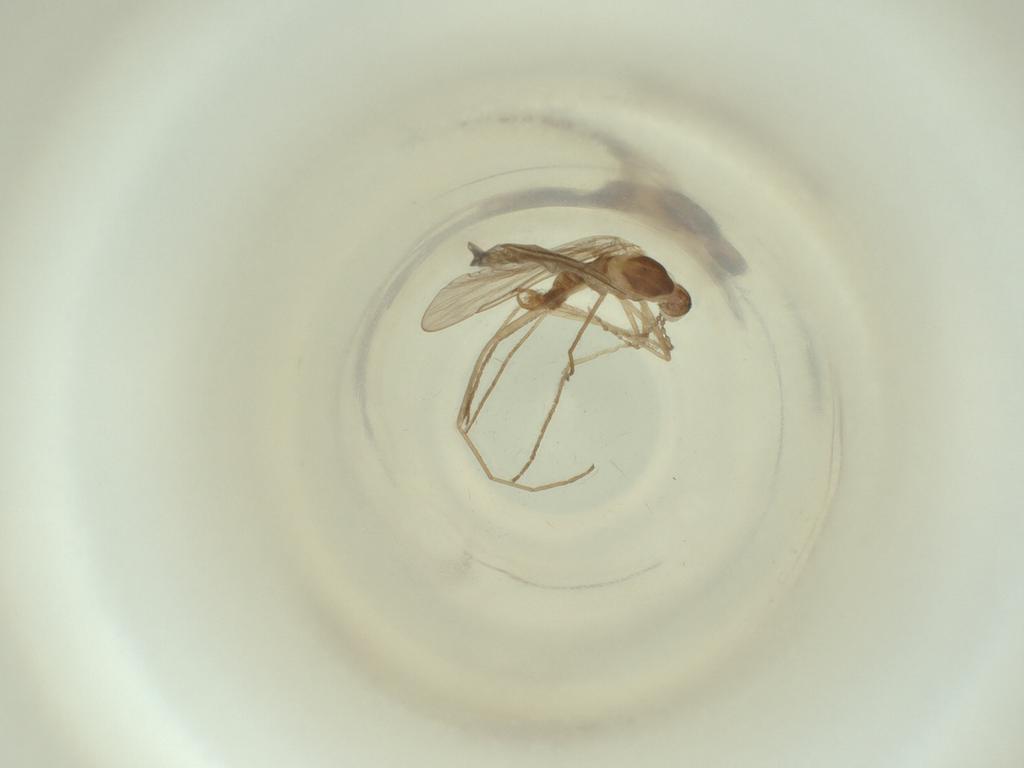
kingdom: Animalia
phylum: Arthropoda
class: Insecta
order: Diptera
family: Cecidomyiidae
